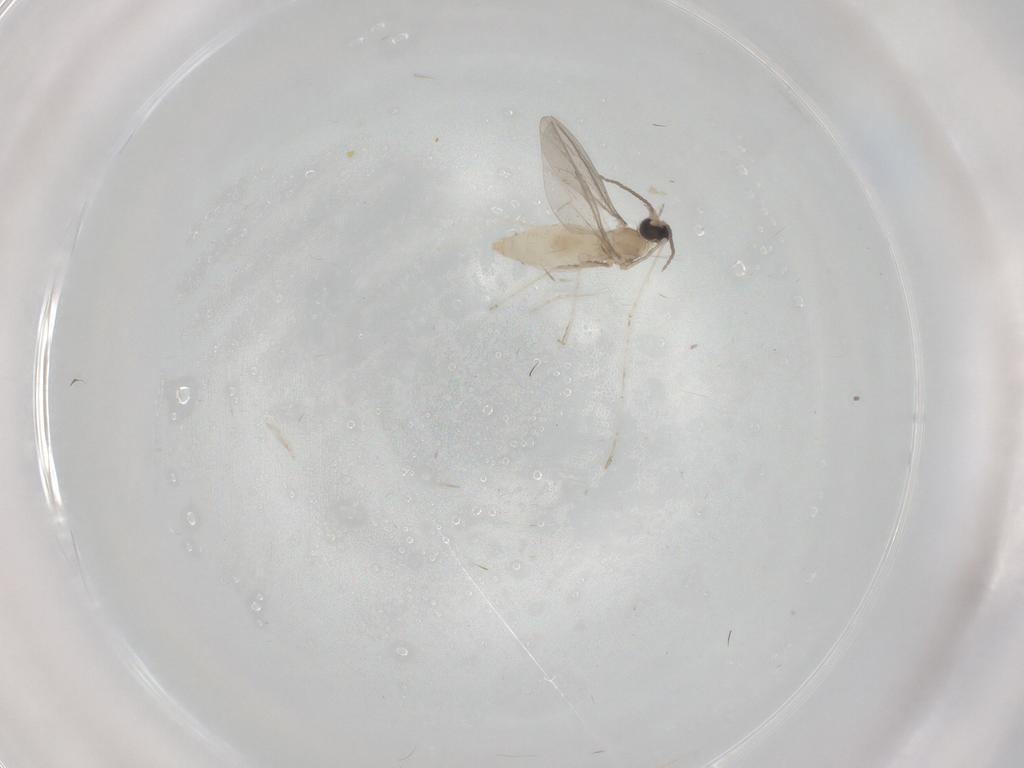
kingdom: Animalia
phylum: Arthropoda
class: Insecta
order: Diptera
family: Cecidomyiidae
